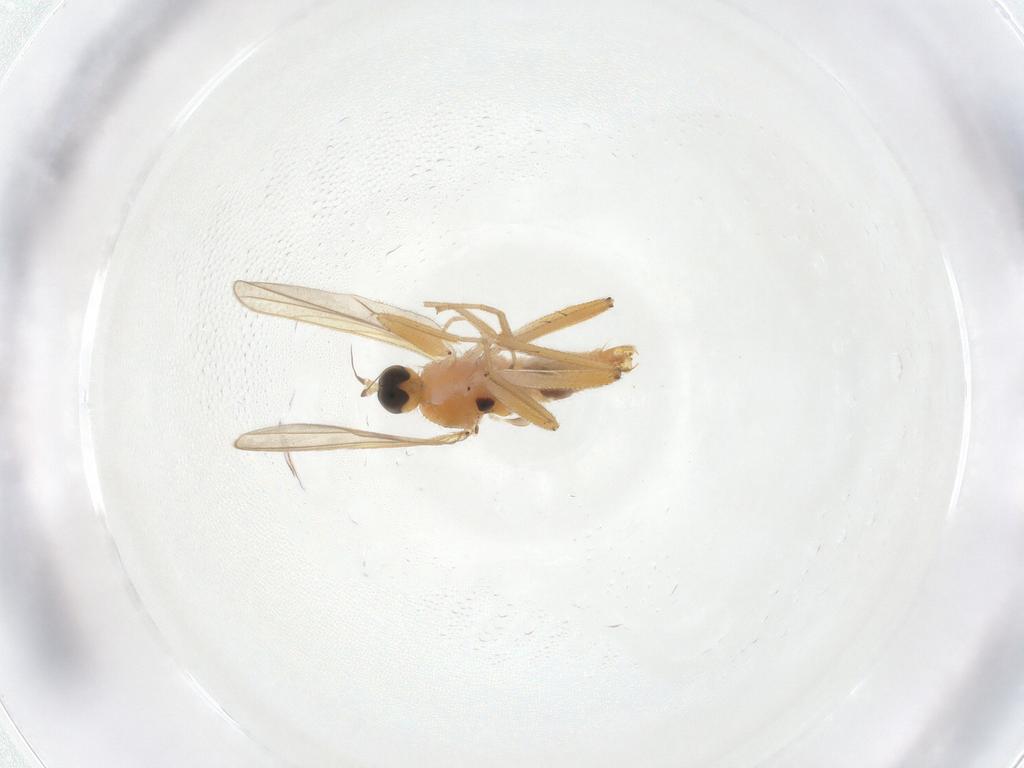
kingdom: Animalia
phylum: Arthropoda
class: Insecta
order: Diptera
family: Hybotidae
